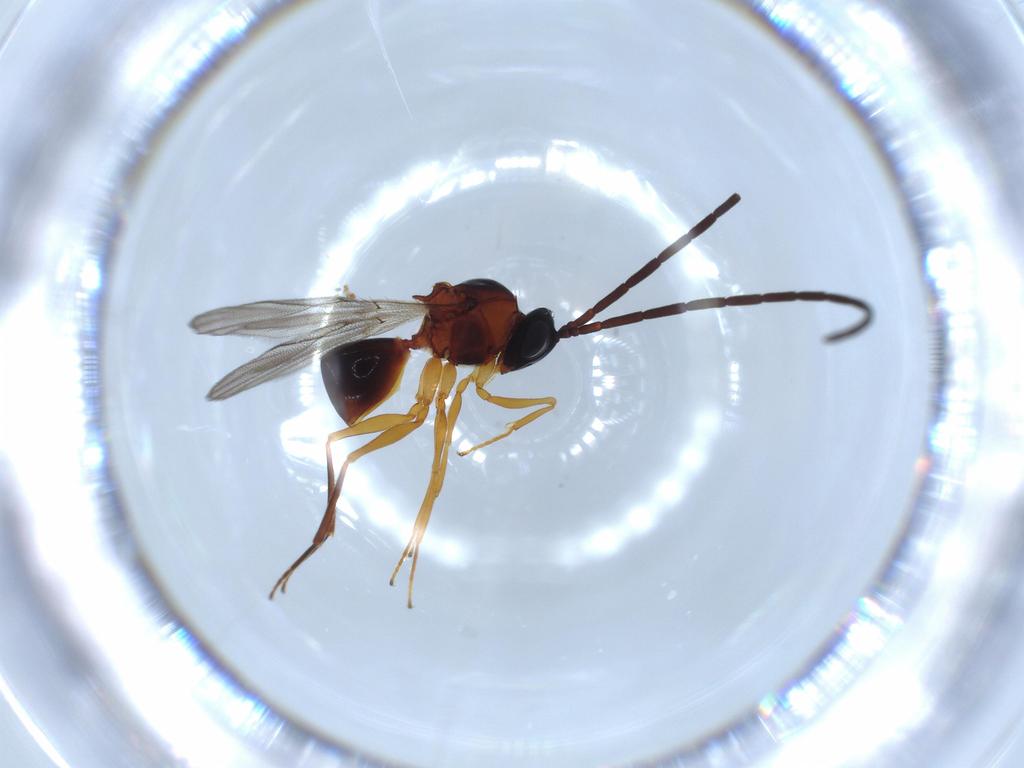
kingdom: Animalia
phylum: Arthropoda
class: Insecta
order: Hymenoptera
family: Figitidae
